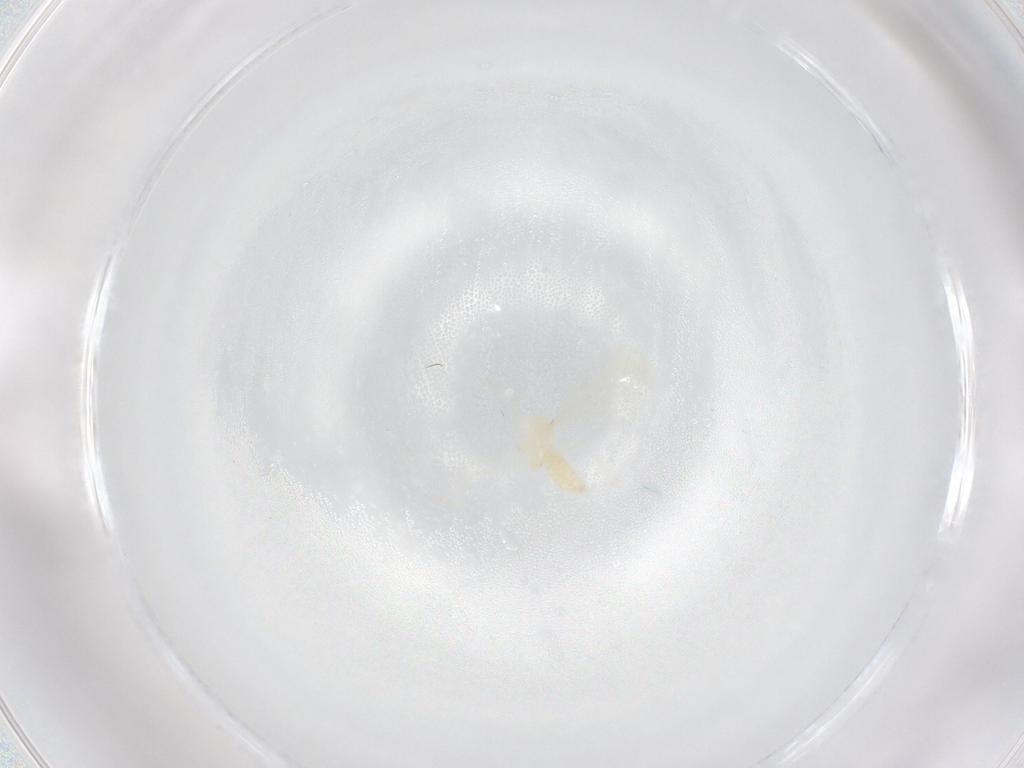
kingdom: Animalia
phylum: Arthropoda
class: Insecta
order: Diptera
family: Cecidomyiidae
